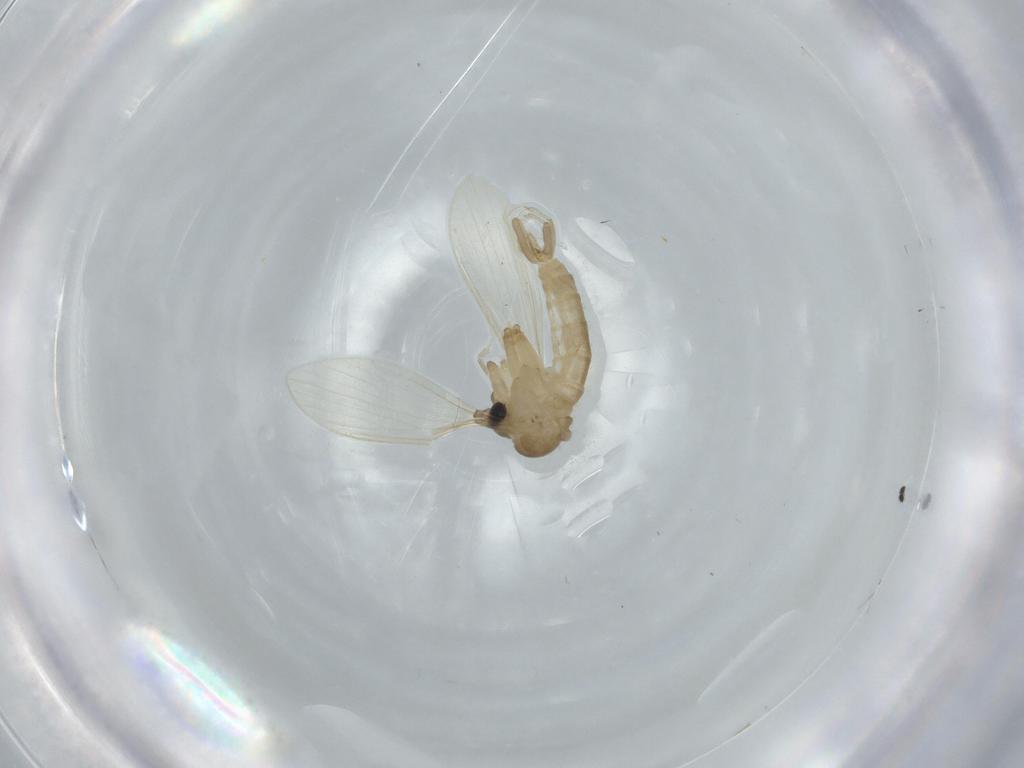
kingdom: Animalia
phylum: Arthropoda
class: Insecta
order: Diptera
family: Psychodidae
